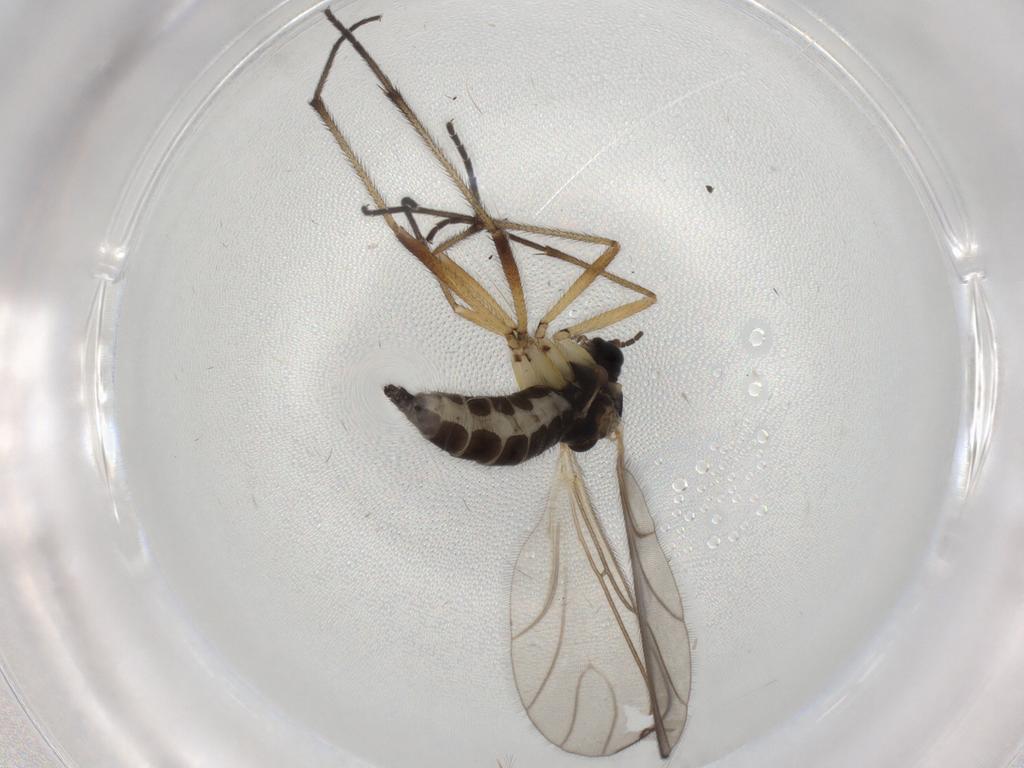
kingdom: Animalia
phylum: Arthropoda
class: Insecta
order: Diptera
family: Sciaridae
